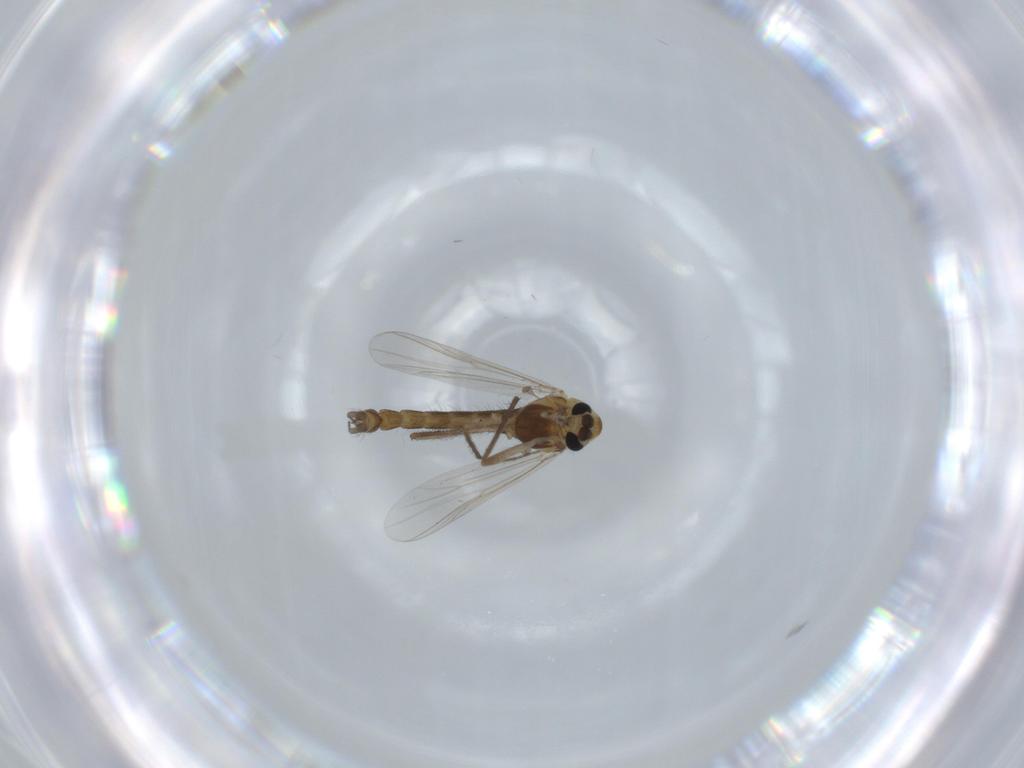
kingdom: Animalia
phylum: Arthropoda
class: Insecta
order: Diptera
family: Chironomidae
